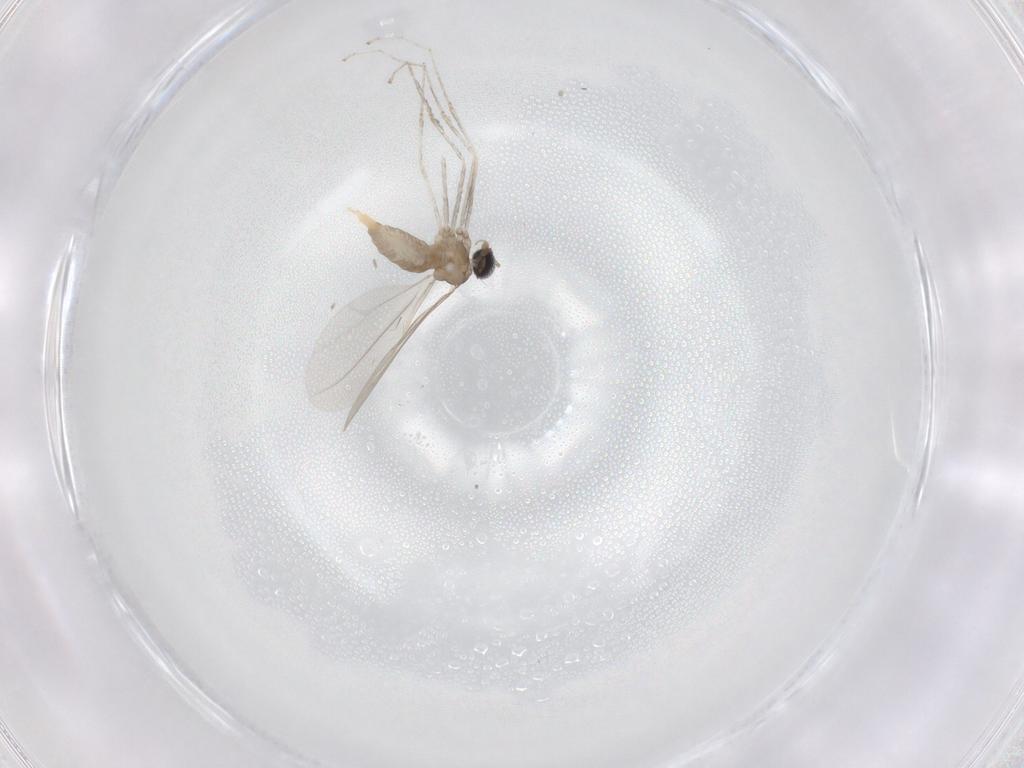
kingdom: Animalia
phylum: Arthropoda
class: Insecta
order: Diptera
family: Cecidomyiidae
